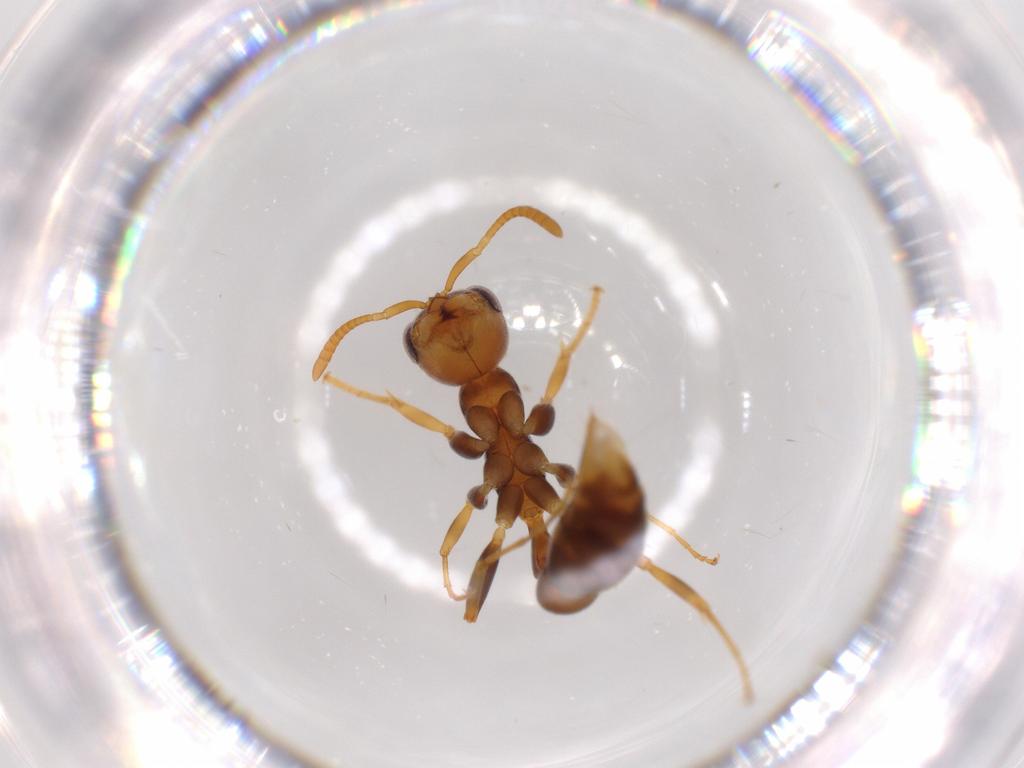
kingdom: Animalia
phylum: Arthropoda
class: Insecta
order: Hymenoptera
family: Formicidae
